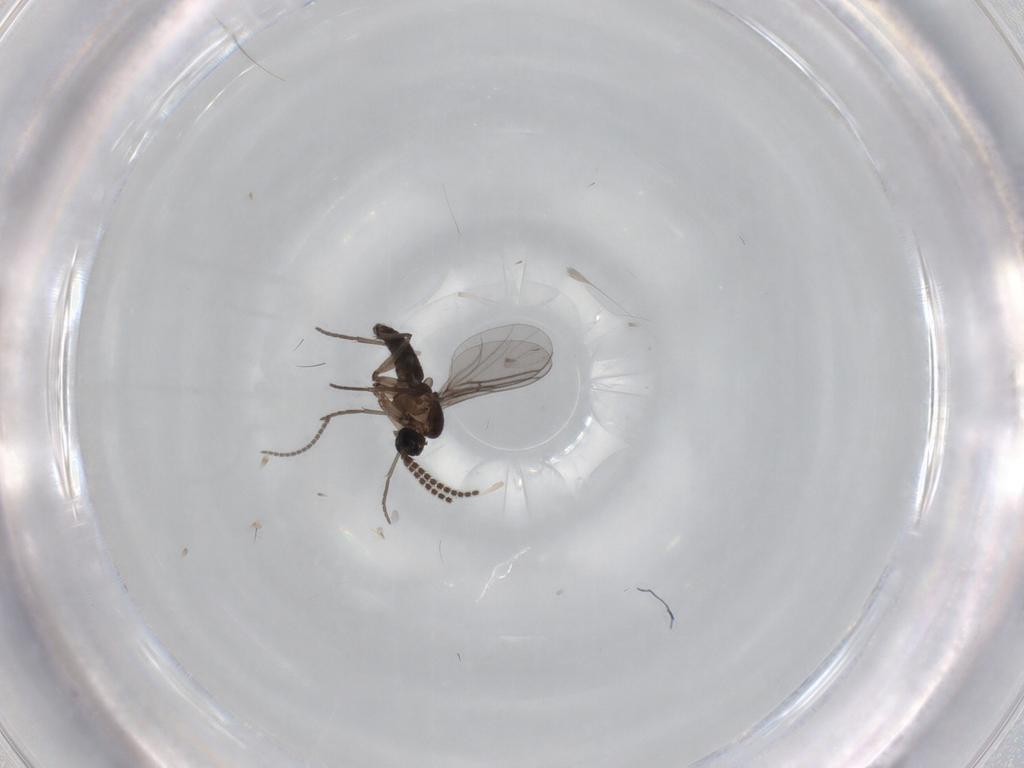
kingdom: Animalia
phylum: Arthropoda
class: Insecta
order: Diptera
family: Sciaridae
